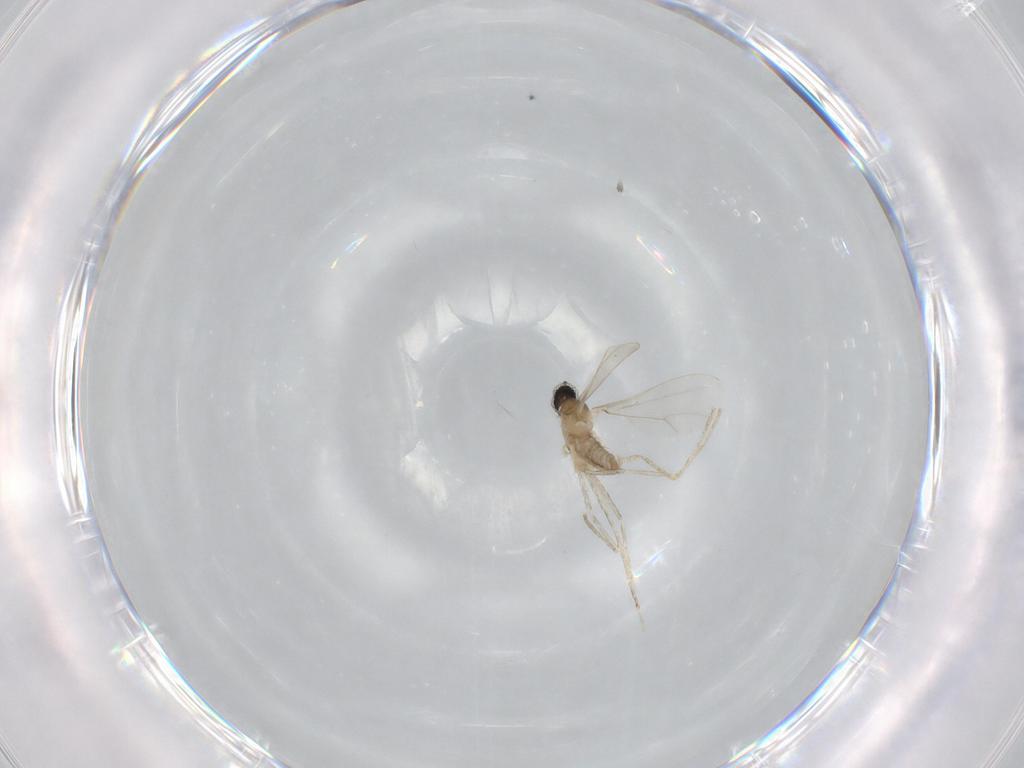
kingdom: Animalia
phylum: Arthropoda
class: Insecta
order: Diptera
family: Cecidomyiidae
